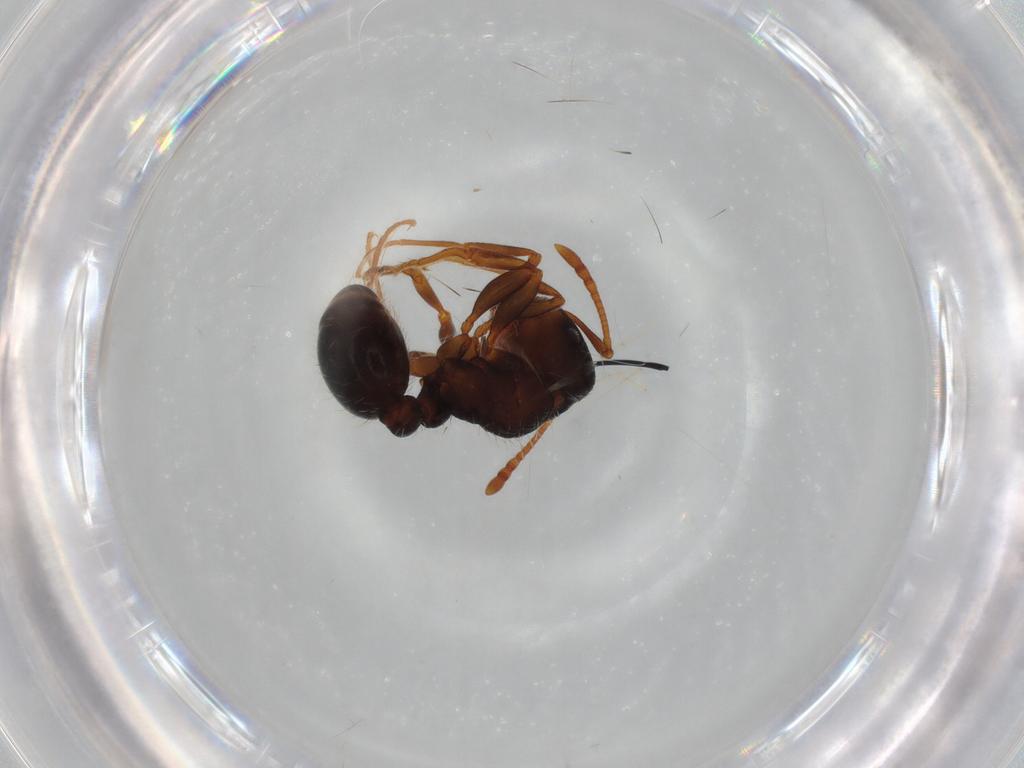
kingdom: Animalia
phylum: Arthropoda
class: Insecta
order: Hymenoptera
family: Formicidae
